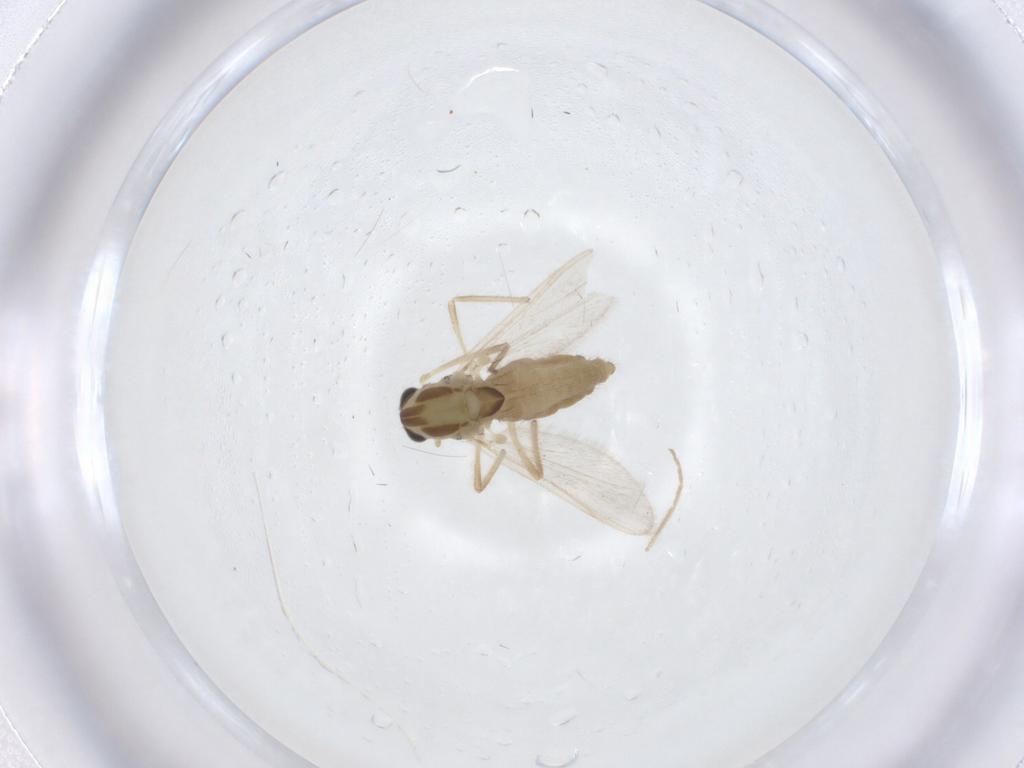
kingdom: Animalia
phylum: Arthropoda
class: Insecta
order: Diptera
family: Chironomidae
